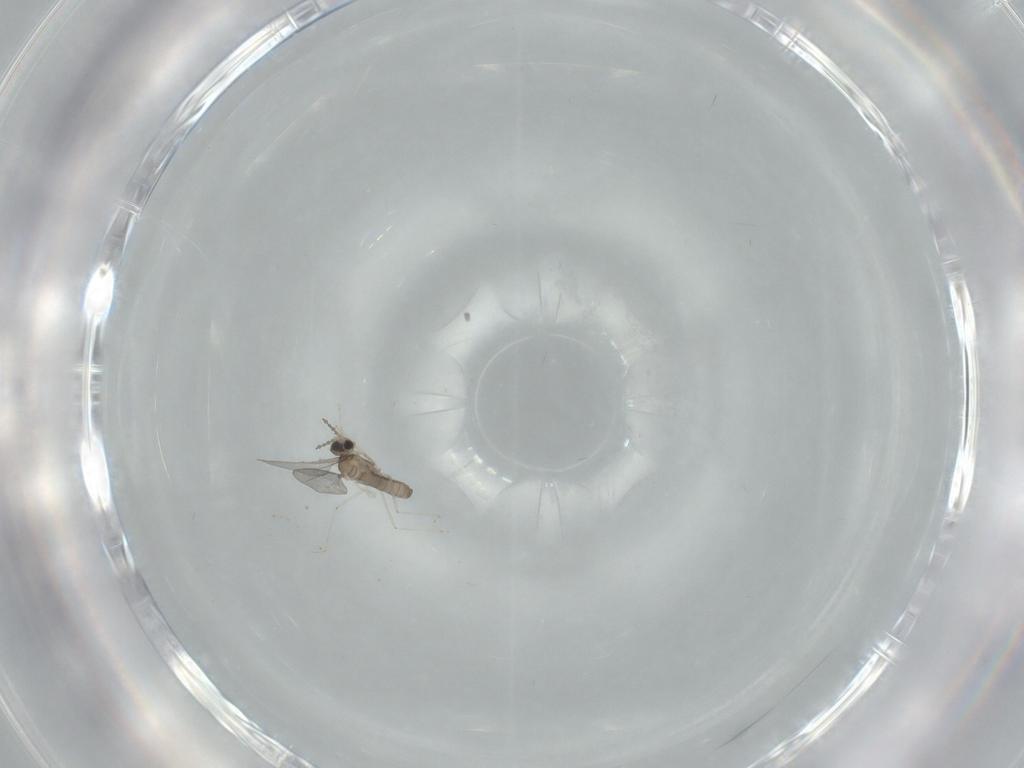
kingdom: Animalia
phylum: Arthropoda
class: Insecta
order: Diptera
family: Cecidomyiidae
